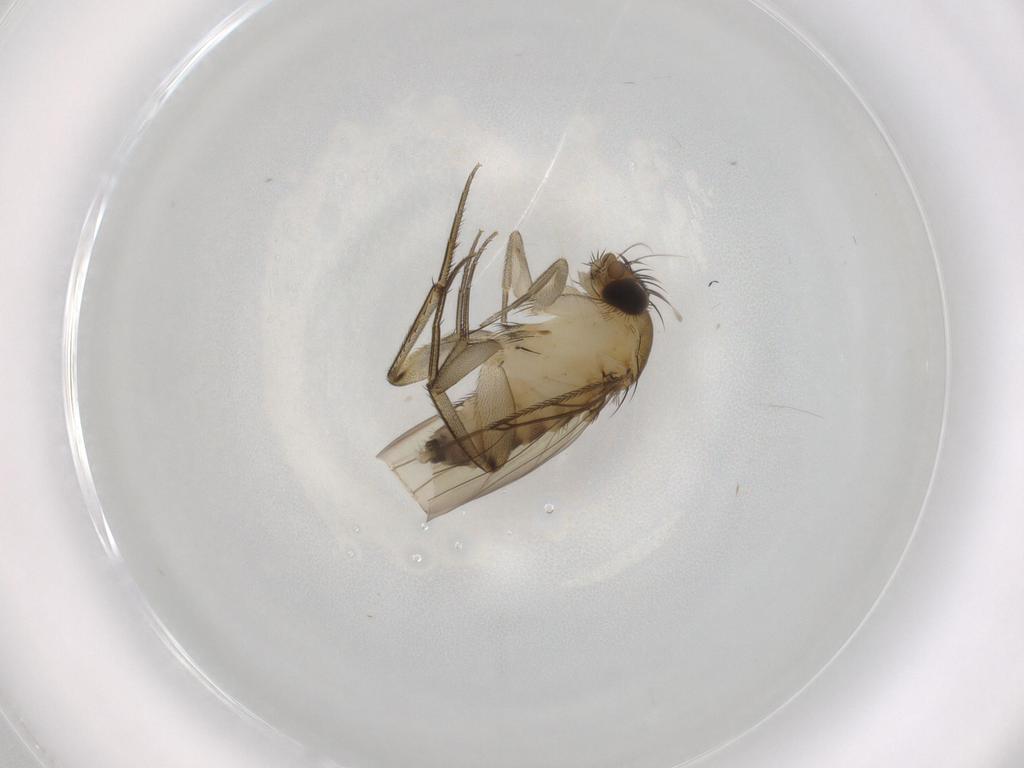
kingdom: Animalia
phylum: Arthropoda
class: Insecta
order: Diptera
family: Phoridae
